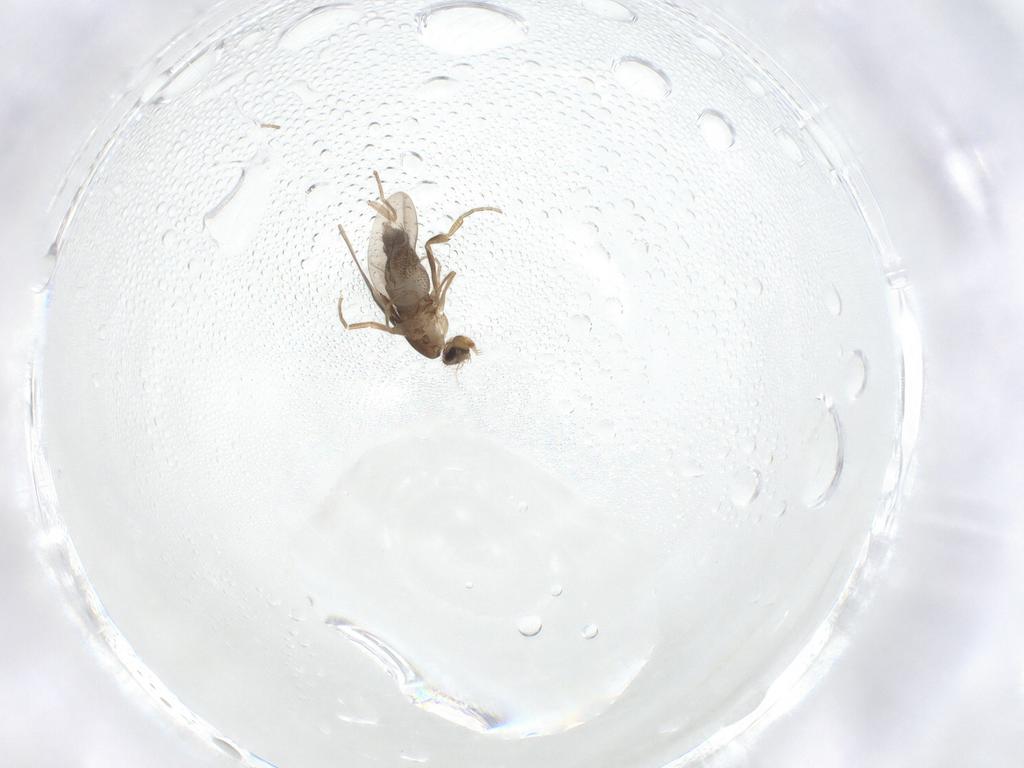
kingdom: Animalia
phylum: Arthropoda
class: Insecta
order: Diptera
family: Phoridae
